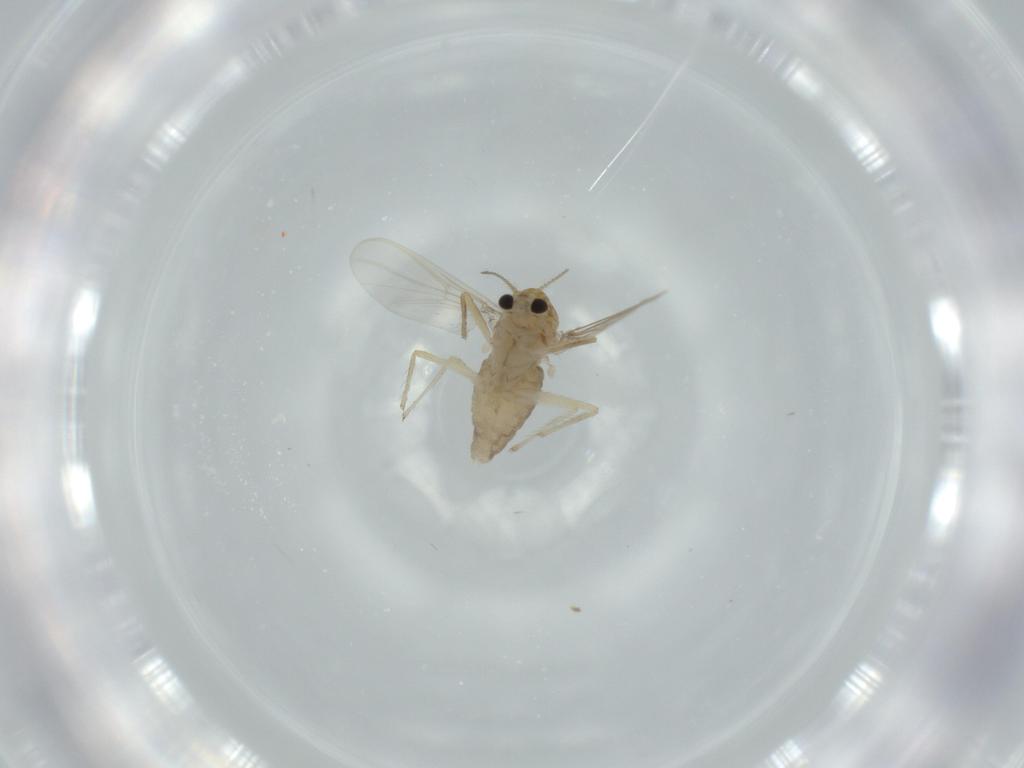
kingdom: Animalia
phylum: Arthropoda
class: Insecta
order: Diptera
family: Chironomidae
